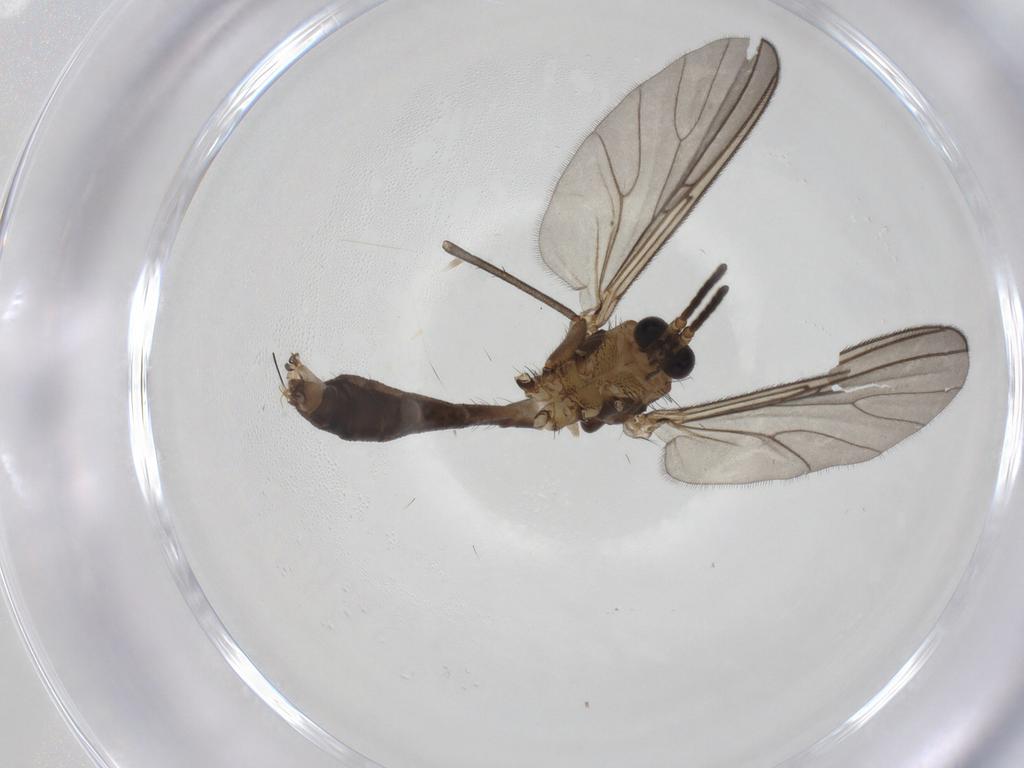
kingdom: Animalia
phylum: Arthropoda
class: Insecta
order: Diptera
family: Mycetophilidae
